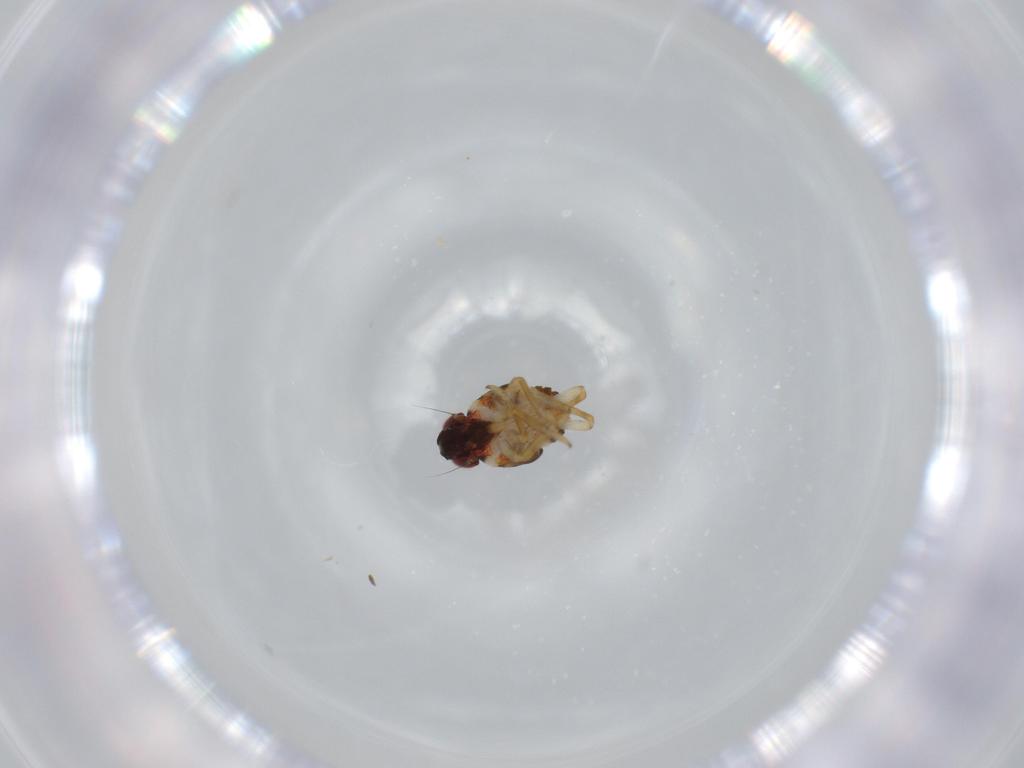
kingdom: Animalia
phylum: Arthropoda
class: Insecta
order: Hemiptera
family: Issidae
